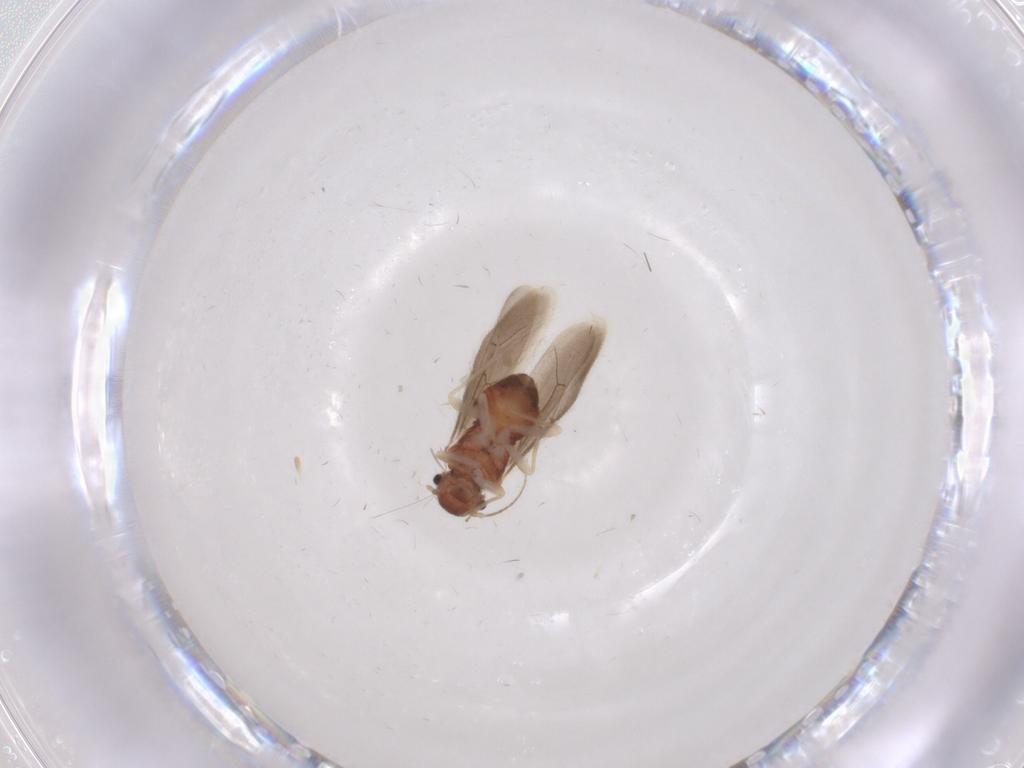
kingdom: Animalia
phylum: Arthropoda
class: Insecta
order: Psocodea
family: Archipsocidae
